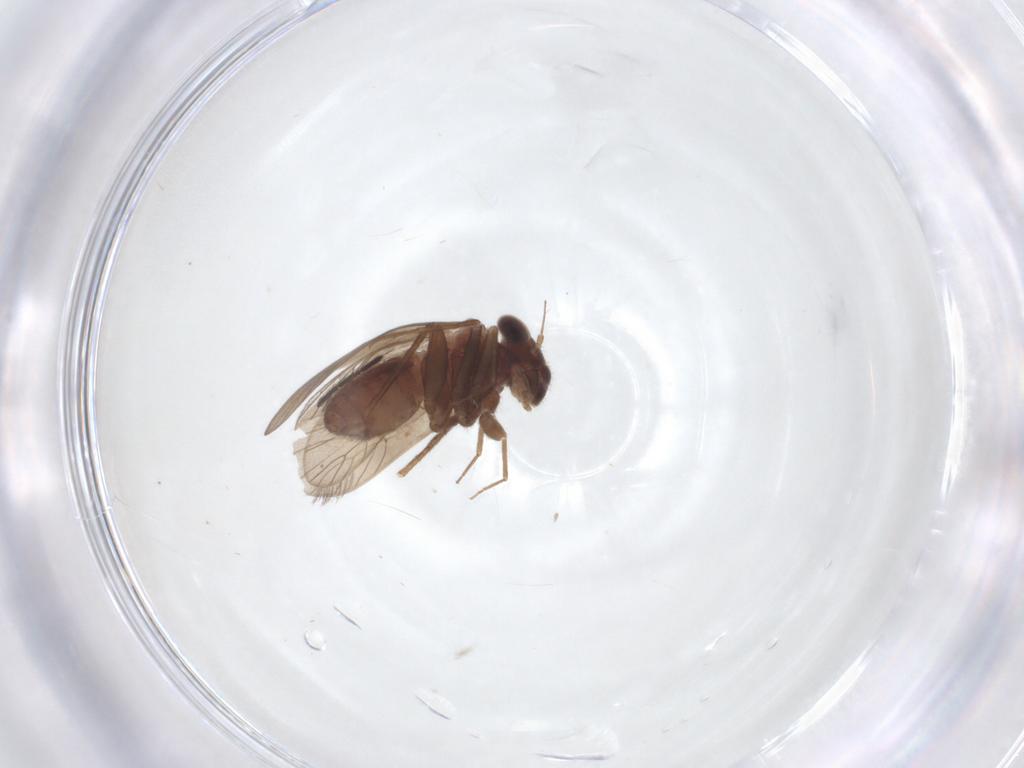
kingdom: Animalia
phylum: Arthropoda
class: Insecta
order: Psocodea
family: Lepidopsocidae
